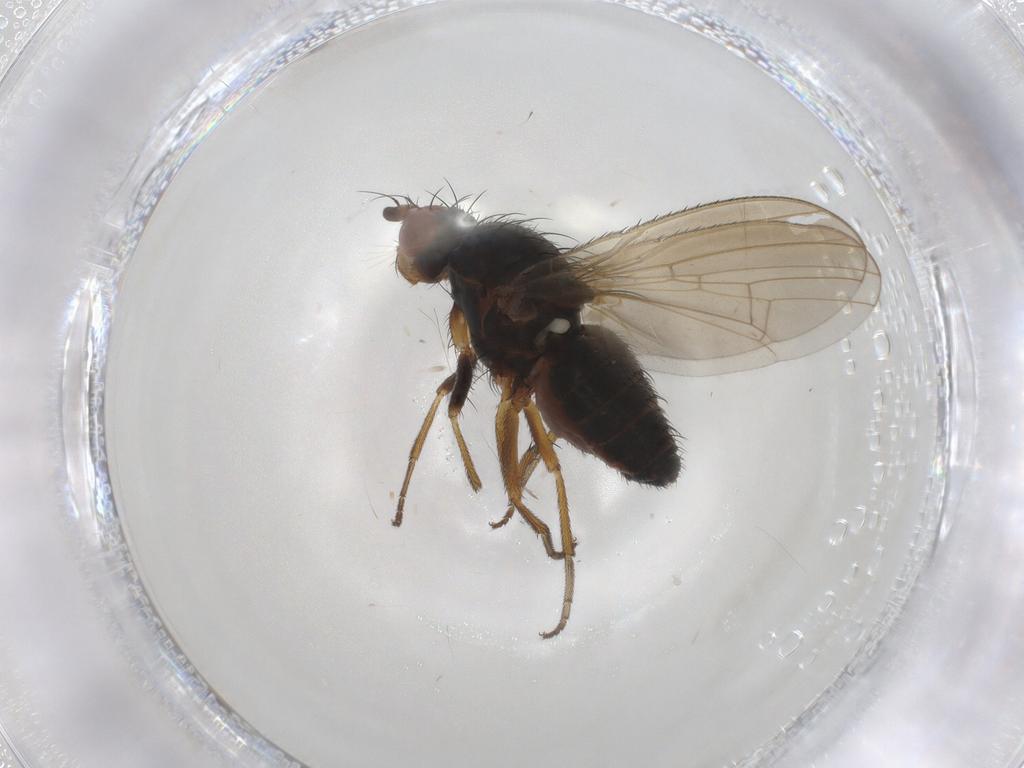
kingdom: Animalia
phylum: Arthropoda
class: Insecta
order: Diptera
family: Heleomyzidae
